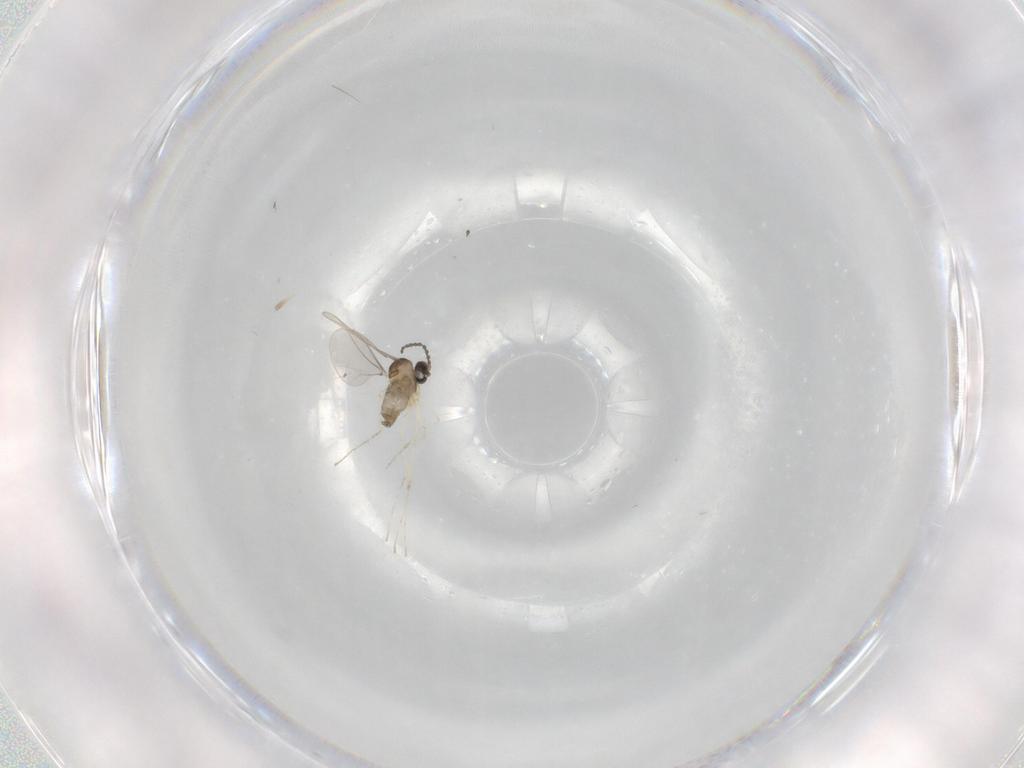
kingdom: Animalia
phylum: Arthropoda
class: Insecta
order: Diptera
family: Cecidomyiidae
